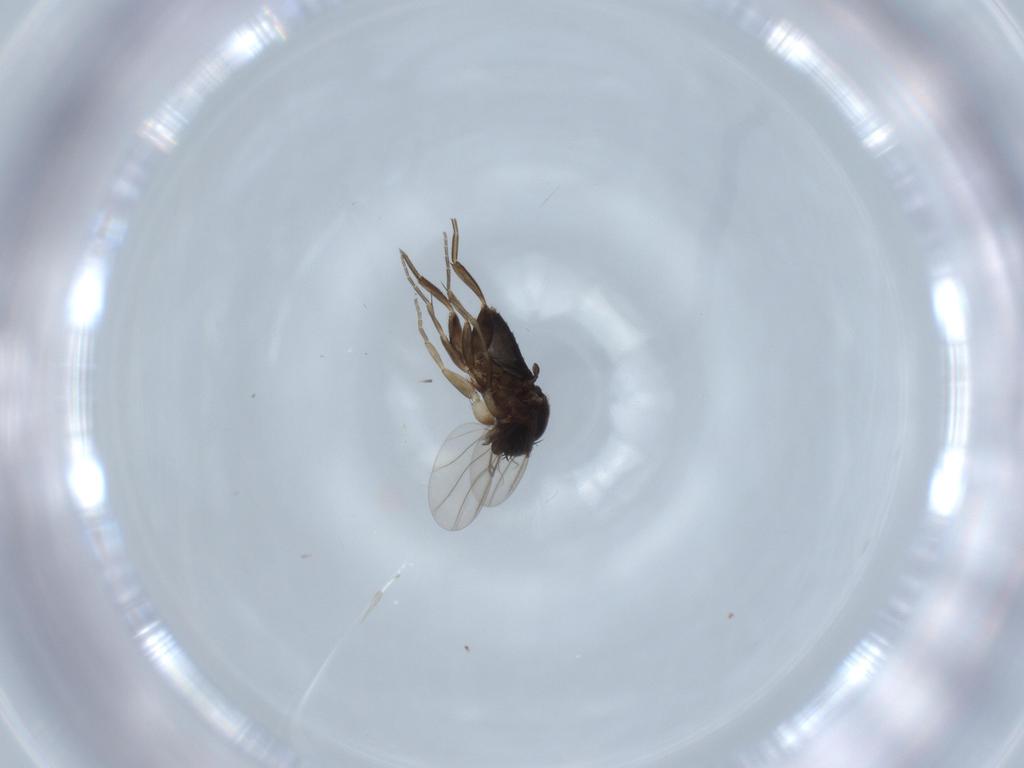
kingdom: Animalia
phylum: Arthropoda
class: Insecta
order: Diptera
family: Phoridae
